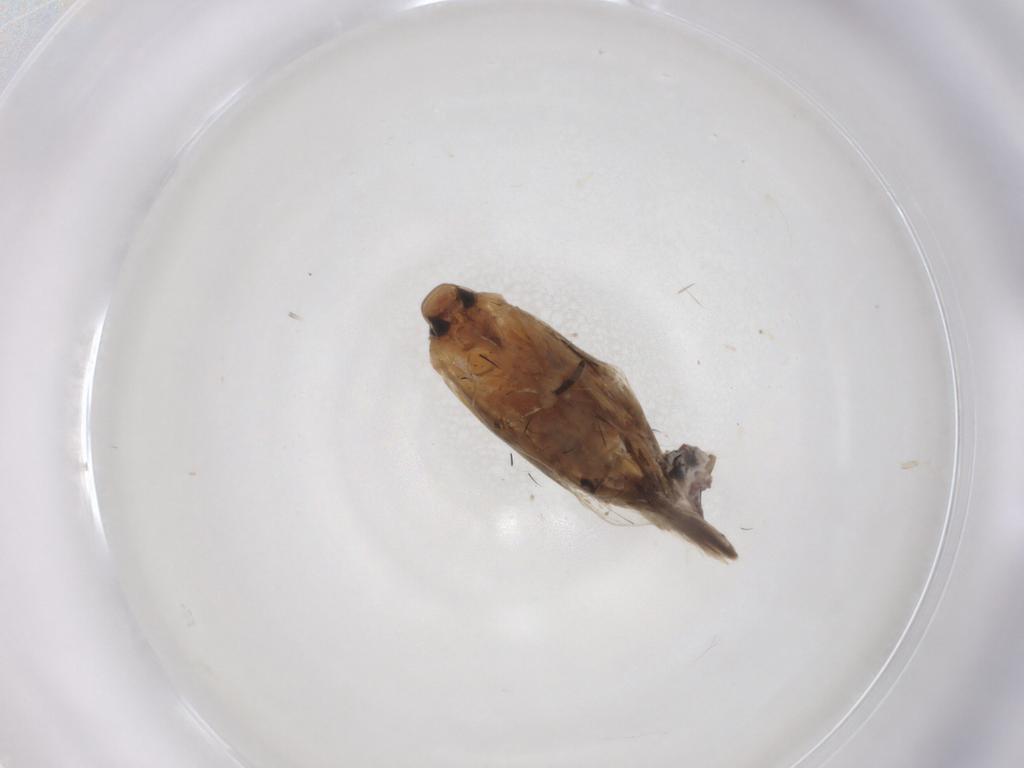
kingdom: Animalia
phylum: Arthropoda
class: Insecta
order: Lepidoptera
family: Gelechiidae
